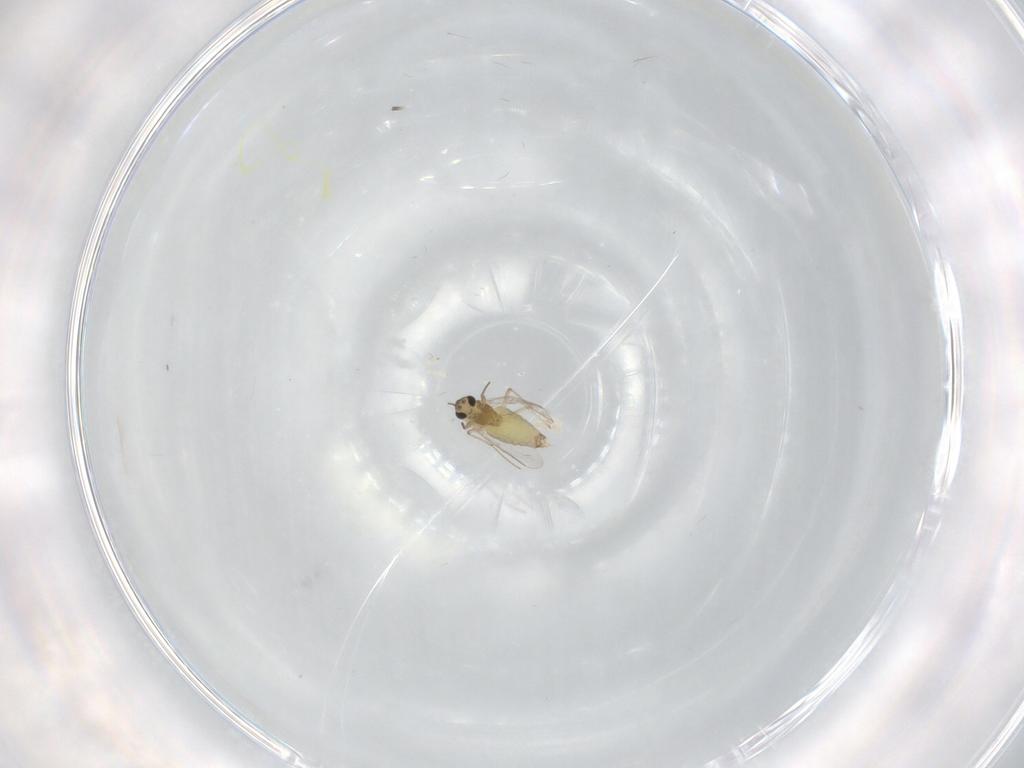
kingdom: Animalia
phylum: Arthropoda
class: Insecta
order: Diptera
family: Chironomidae
